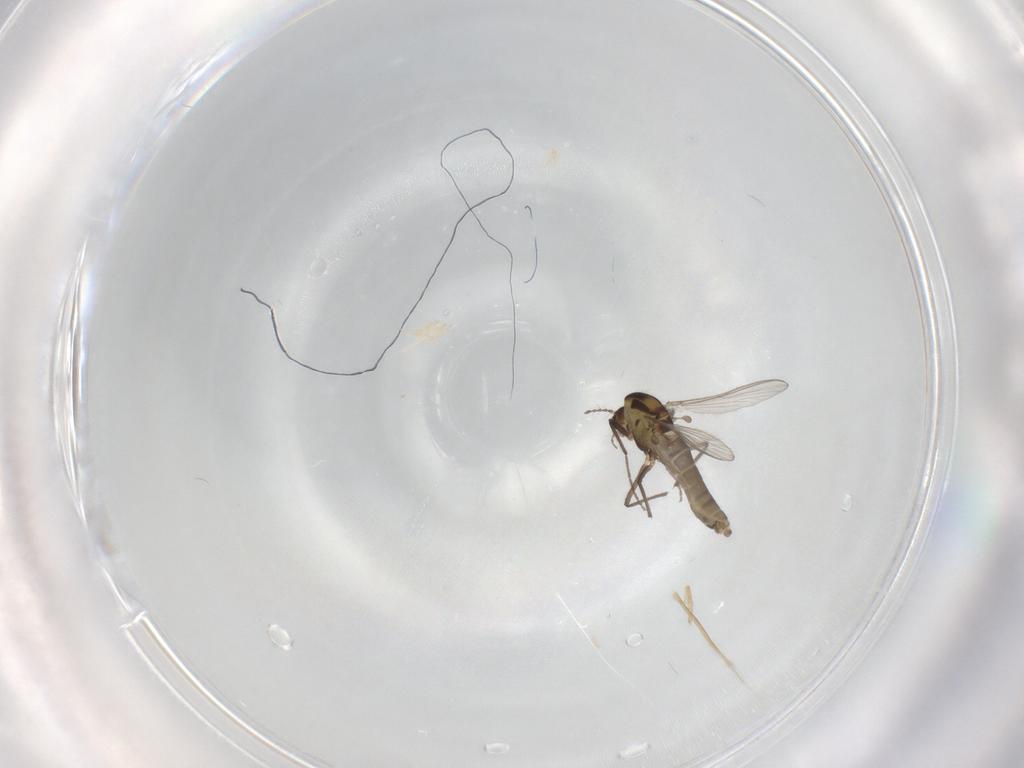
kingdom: Animalia
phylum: Arthropoda
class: Insecta
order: Diptera
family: Chironomidae
